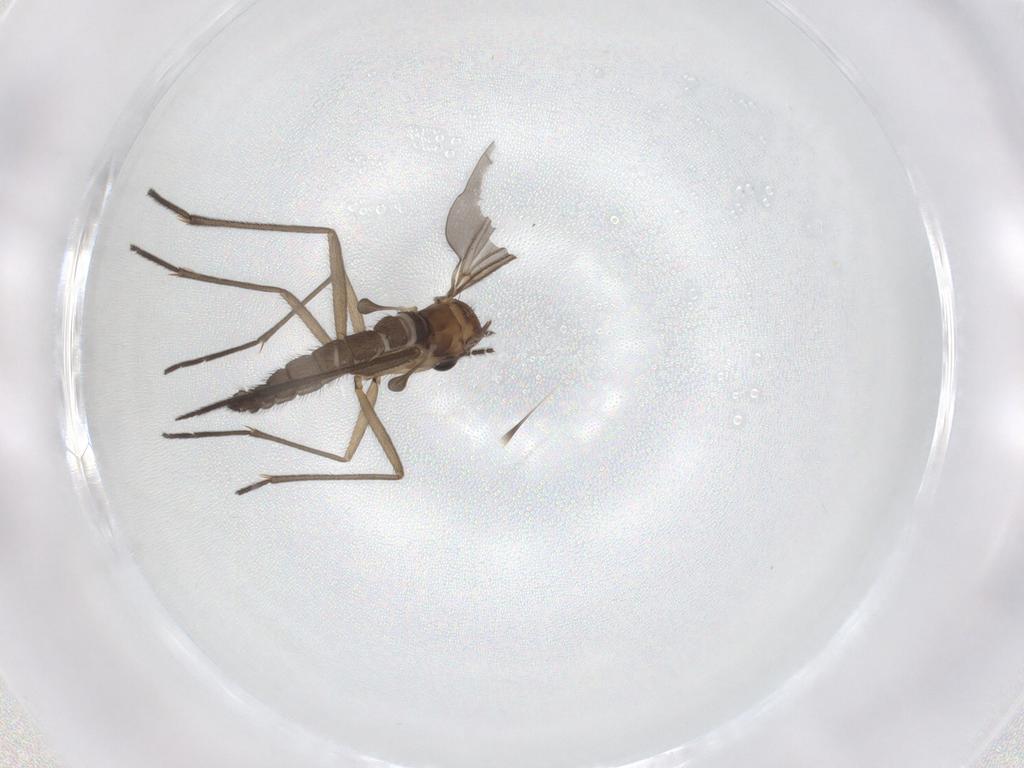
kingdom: Animalia
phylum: Arthropoda
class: Insecta
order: Diptera
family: Sciaridae
